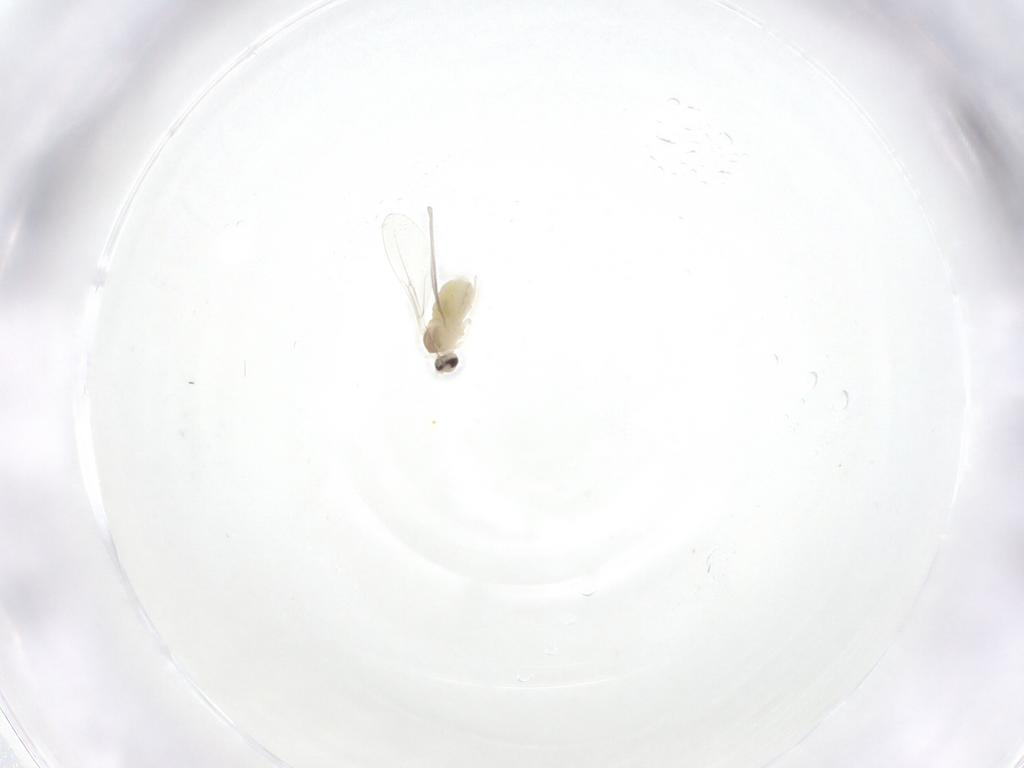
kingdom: Animalia
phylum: Arthropoda
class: Insecta
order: Diptera
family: Cecidomyiidae
